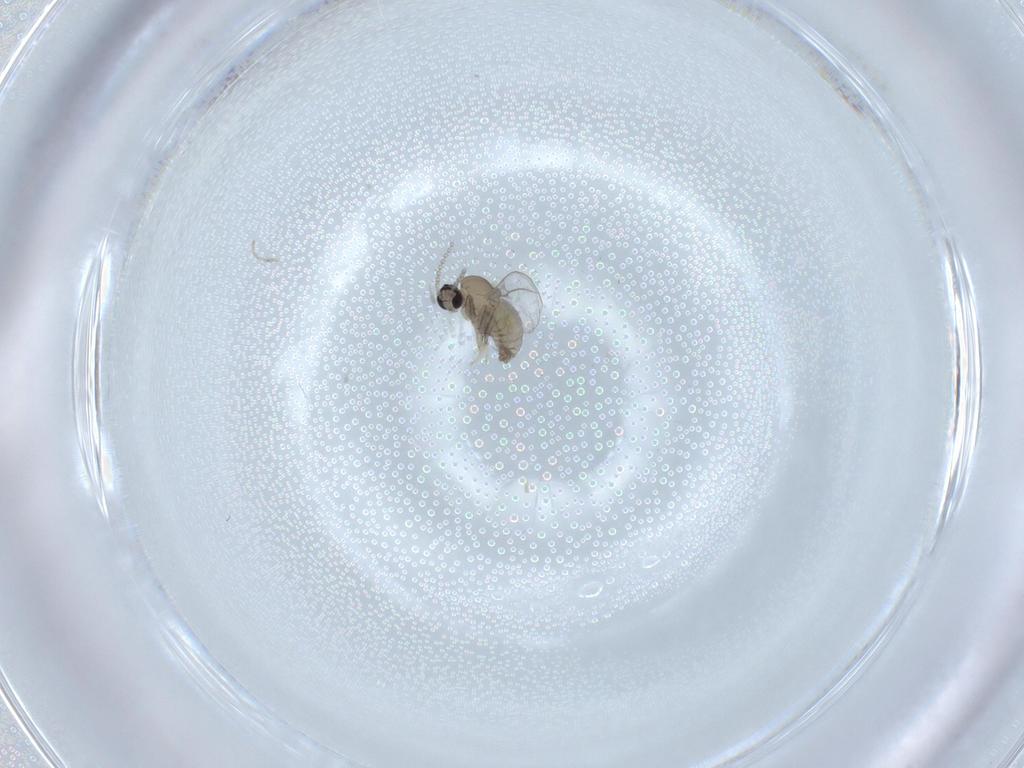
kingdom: Animalia
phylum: Arthropoda
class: Insecta
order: Diptera
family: Cecidomyiidae
